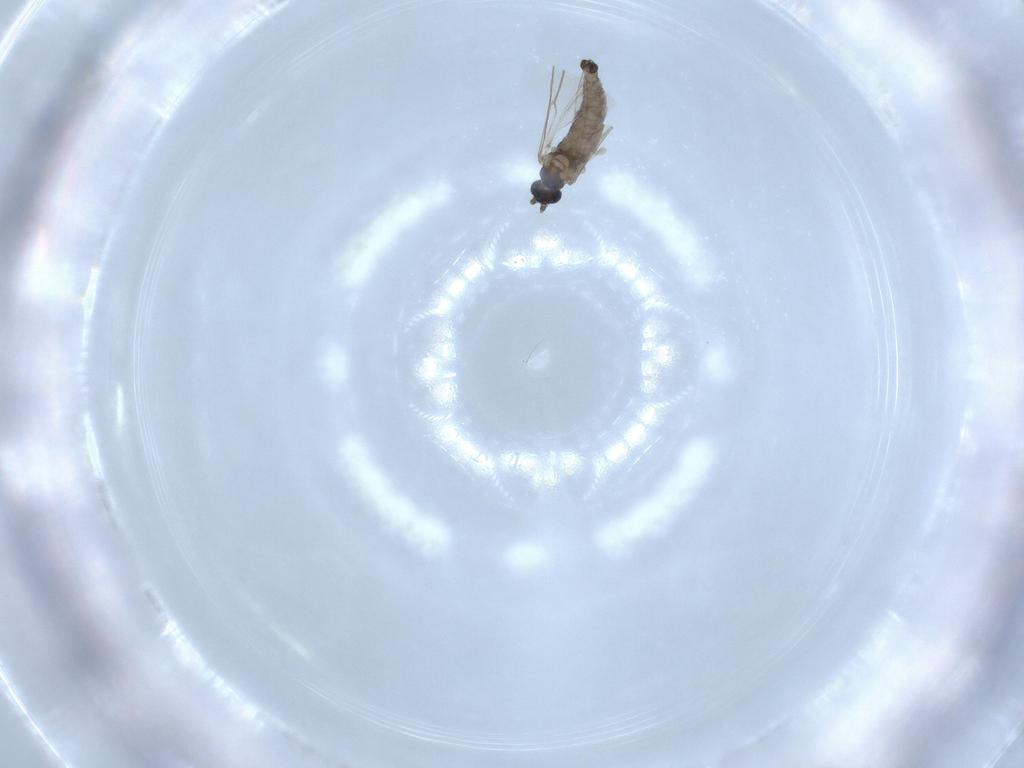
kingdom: Animalia
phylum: Arthropoda
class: Insecta
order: Diptera
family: Cecidomyiidae
